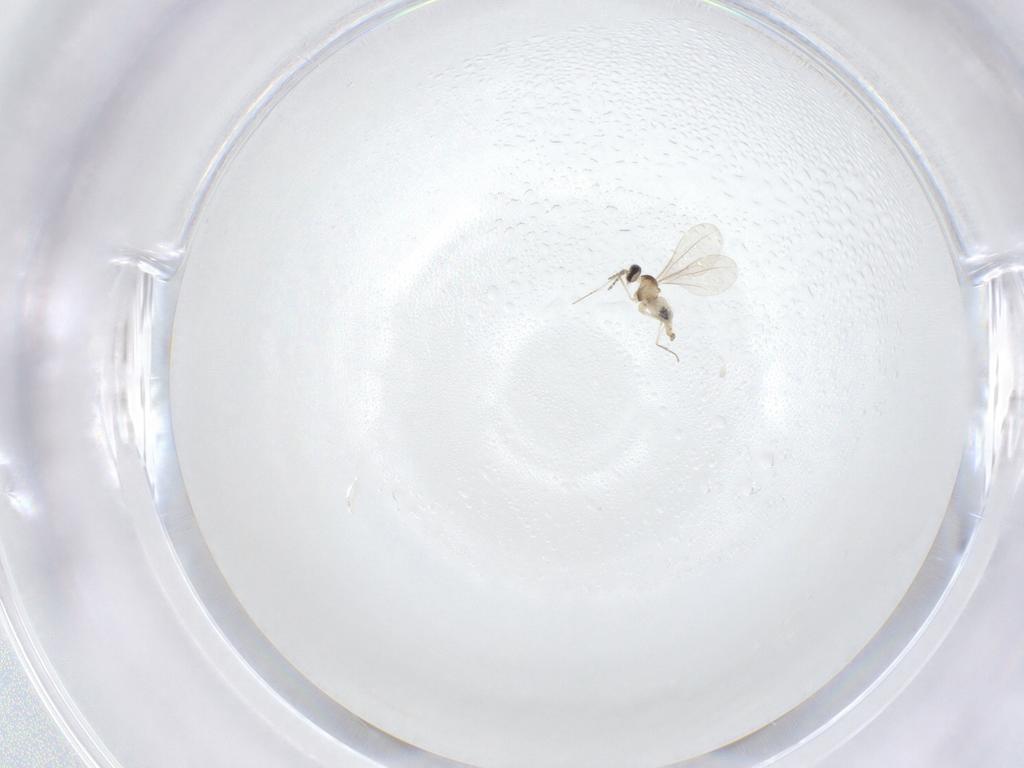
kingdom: Animalia
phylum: Arthropoda
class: Insecta
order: Diptera
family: Cecidomyiidae
